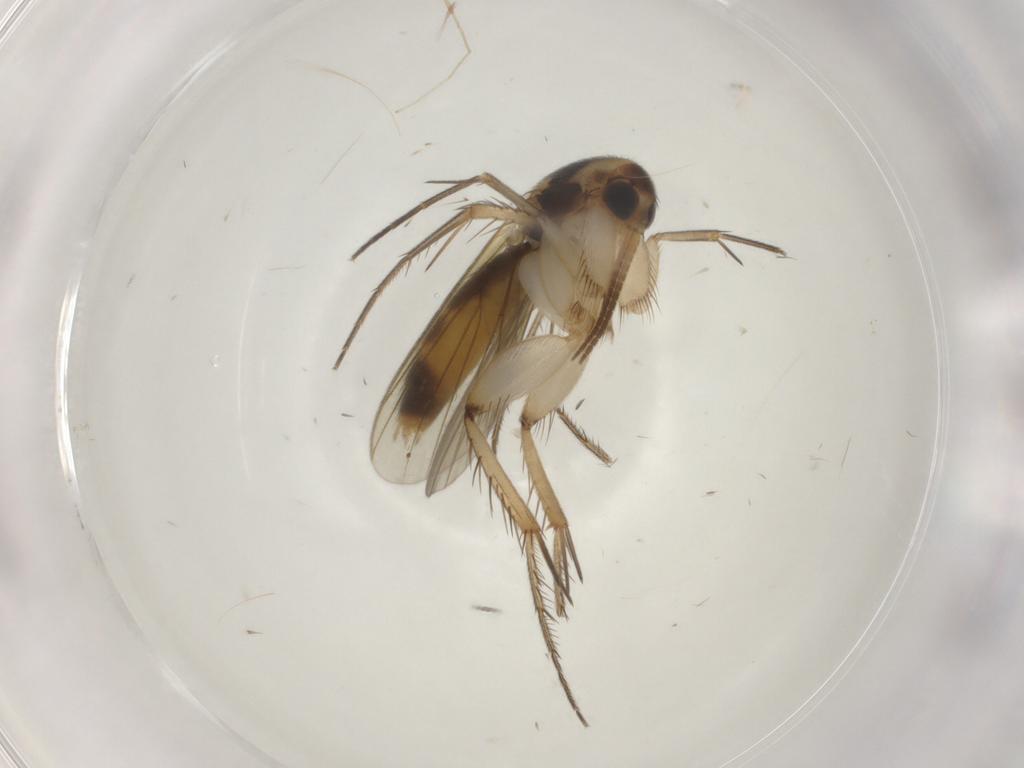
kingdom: Animalia
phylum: Arthropoda
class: Insecta
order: Diptera
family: Mycetophilidae
